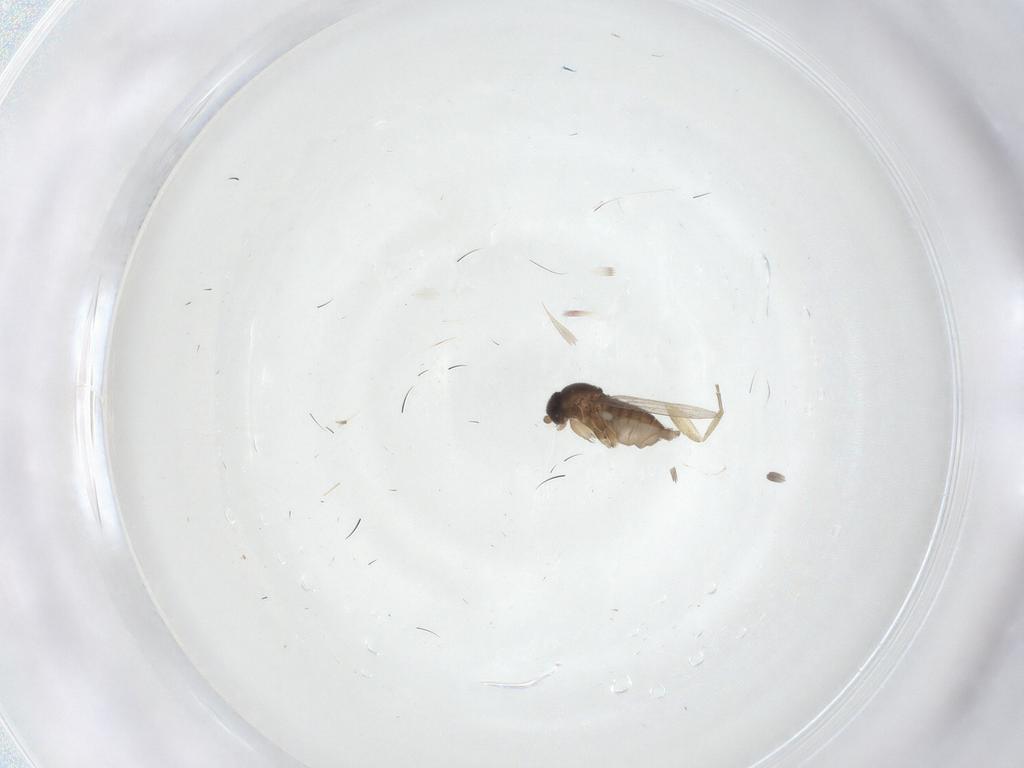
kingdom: Animalia
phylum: Arthropoda
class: Insecta
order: Diptera
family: Phoridae
